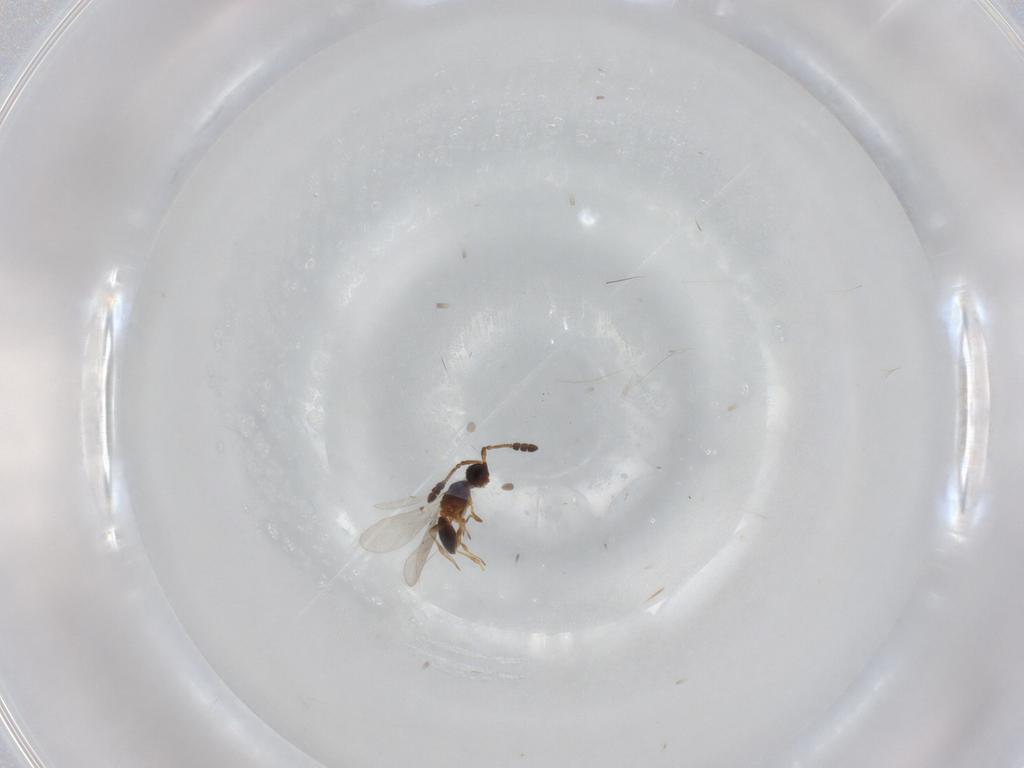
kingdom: Animalia
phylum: Arthropoda
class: Insecta
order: Hymenoptera
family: Diapriidae
